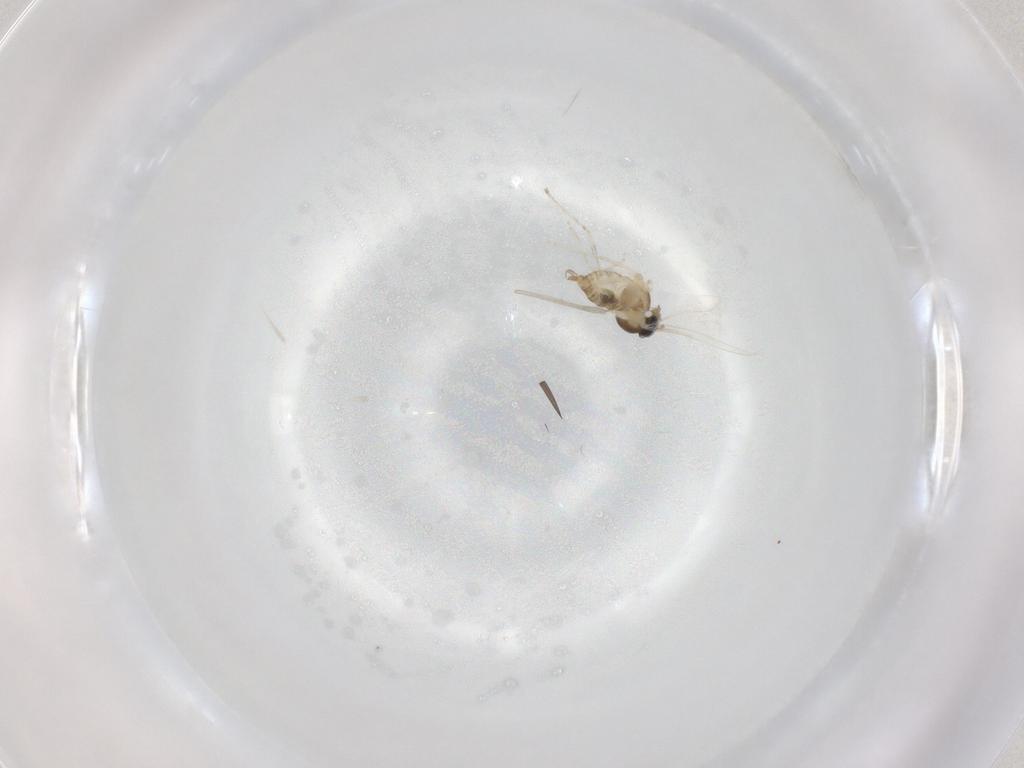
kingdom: Animalia
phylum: Arthropoda
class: Insecta
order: Diptera
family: Cecidomyiidae
